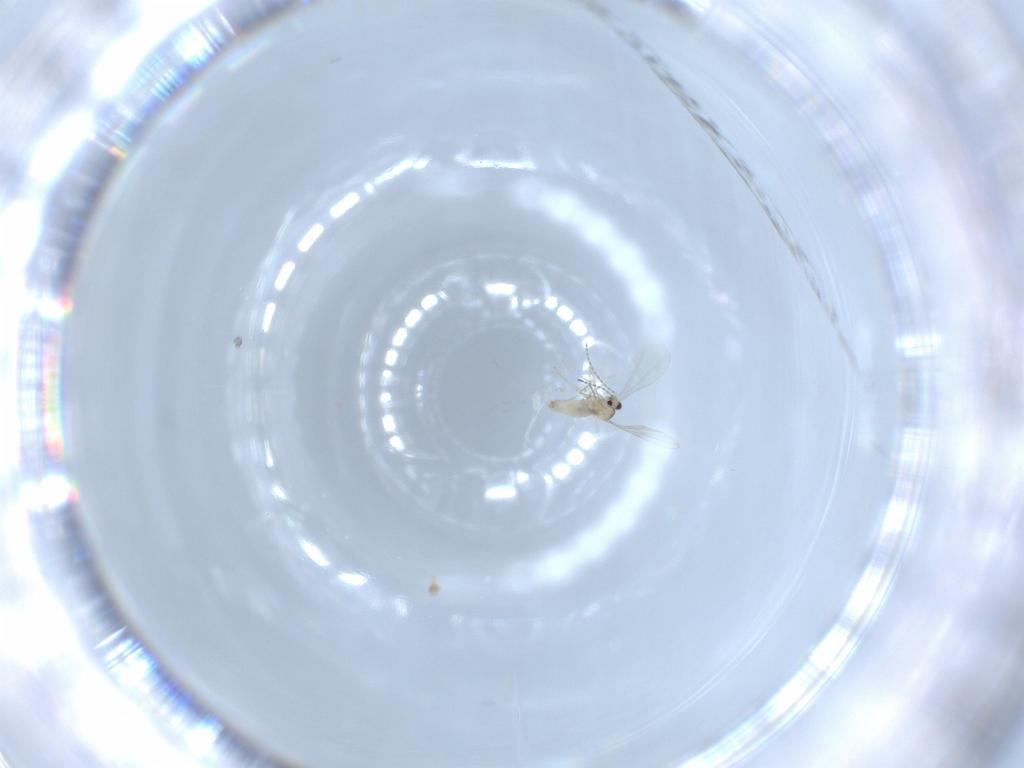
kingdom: Animalia
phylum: Arthropoda
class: Insecta
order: Diptera
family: Cecidomyiidae
